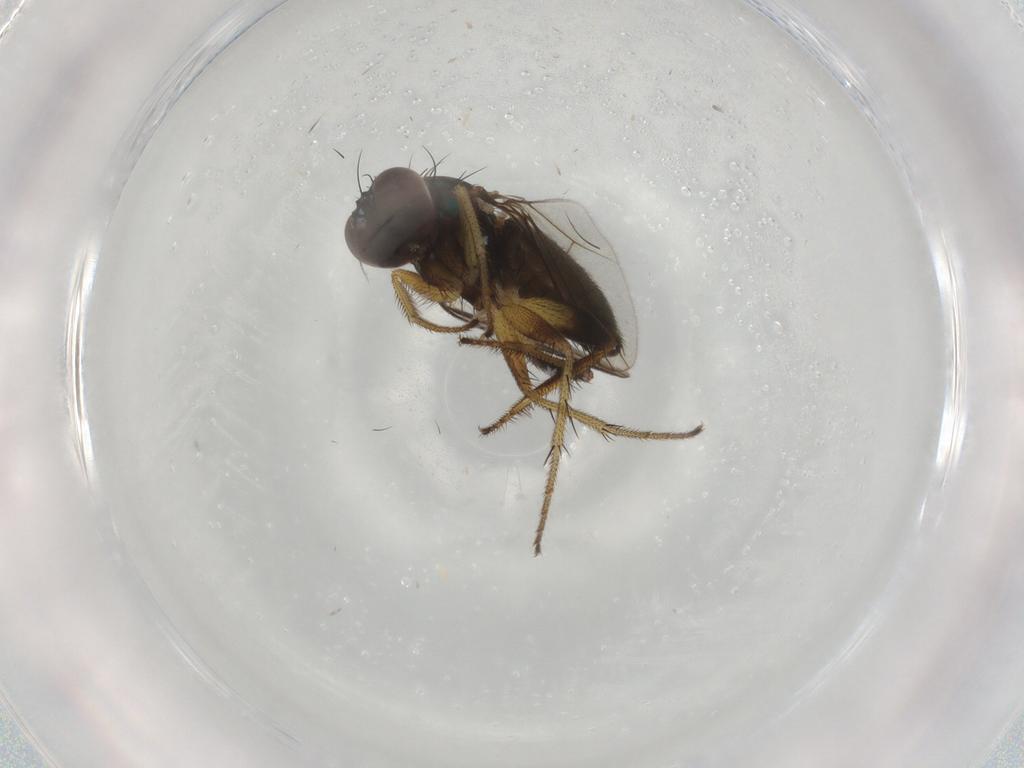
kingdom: Animalia
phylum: Arthropoda
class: Insecta
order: Diptera
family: Dolichopodidae
